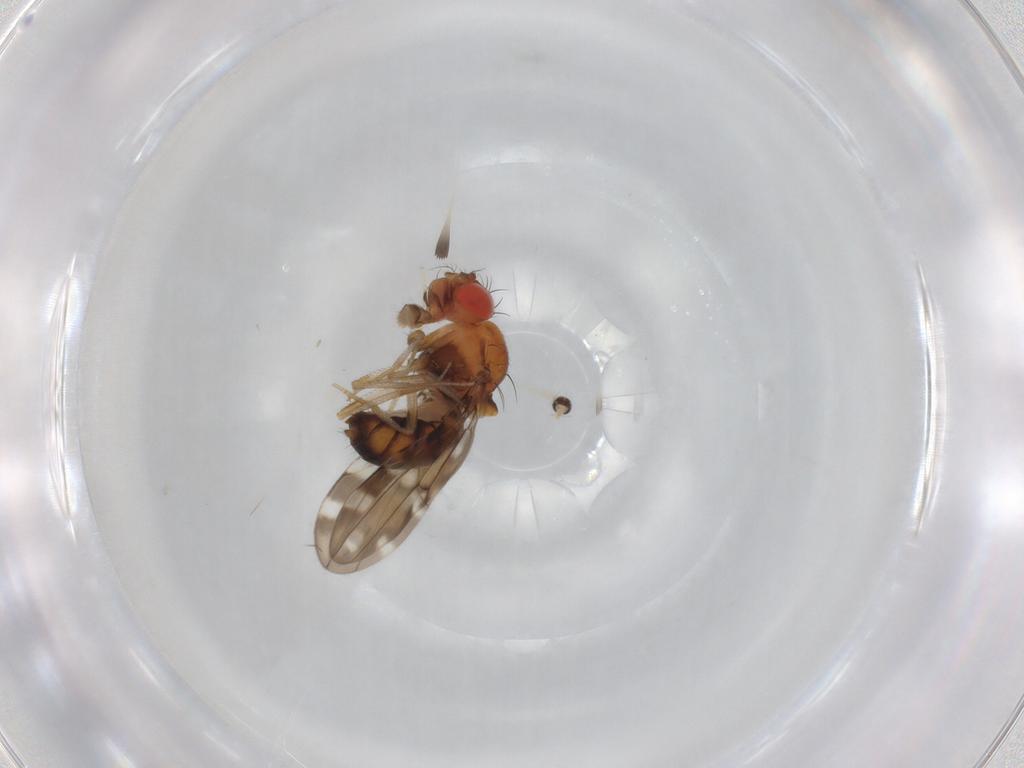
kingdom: Animalia
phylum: Arthropoda
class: Insecta
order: Diptera
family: Drosophilidae
